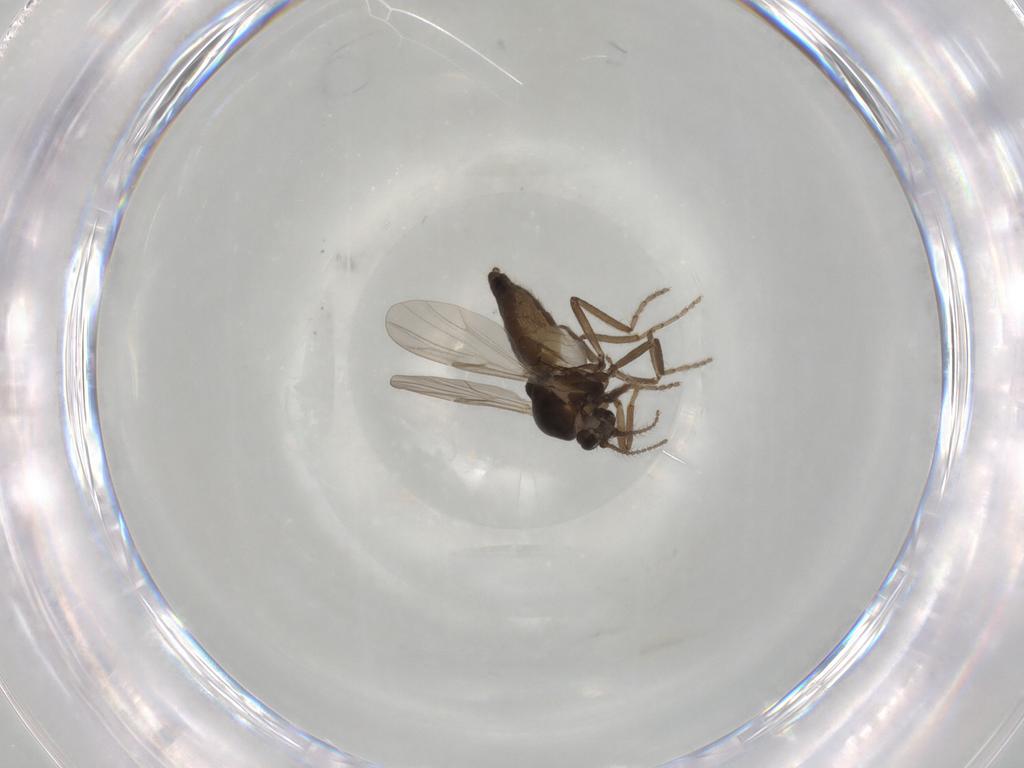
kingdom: Animalia
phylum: Arthropoda
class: Insecta
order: Diptera
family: Ceratopogonidae
